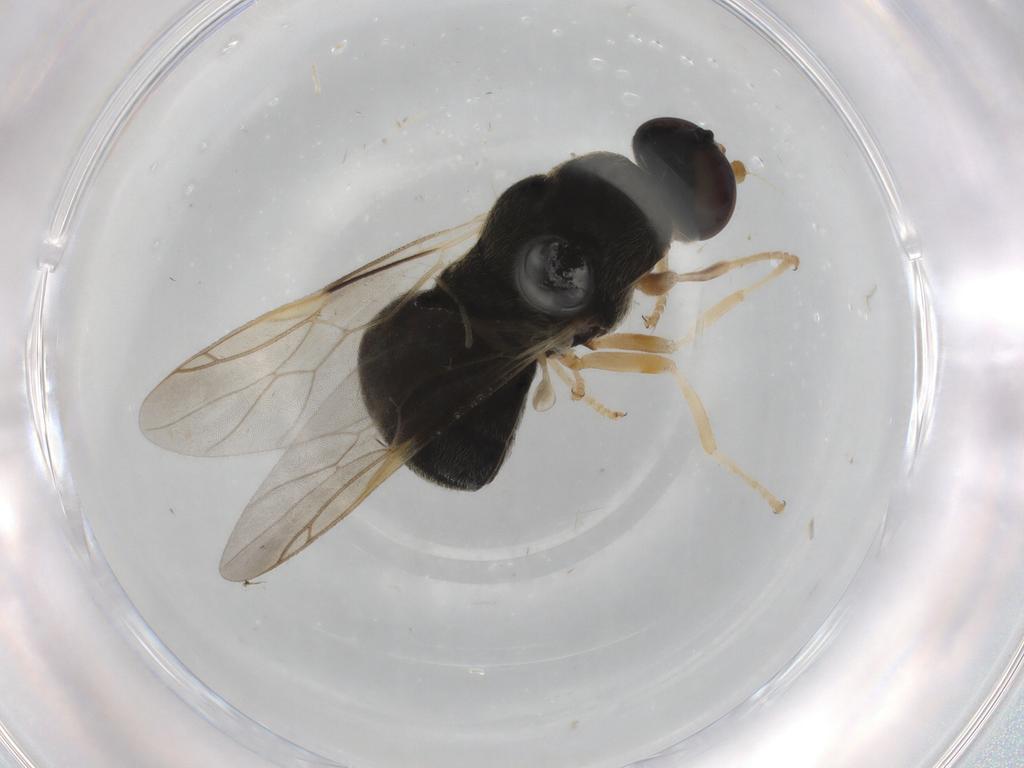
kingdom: Animalia
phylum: Arthropoda
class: Insecta
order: Diptera
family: Stratiomyidae
